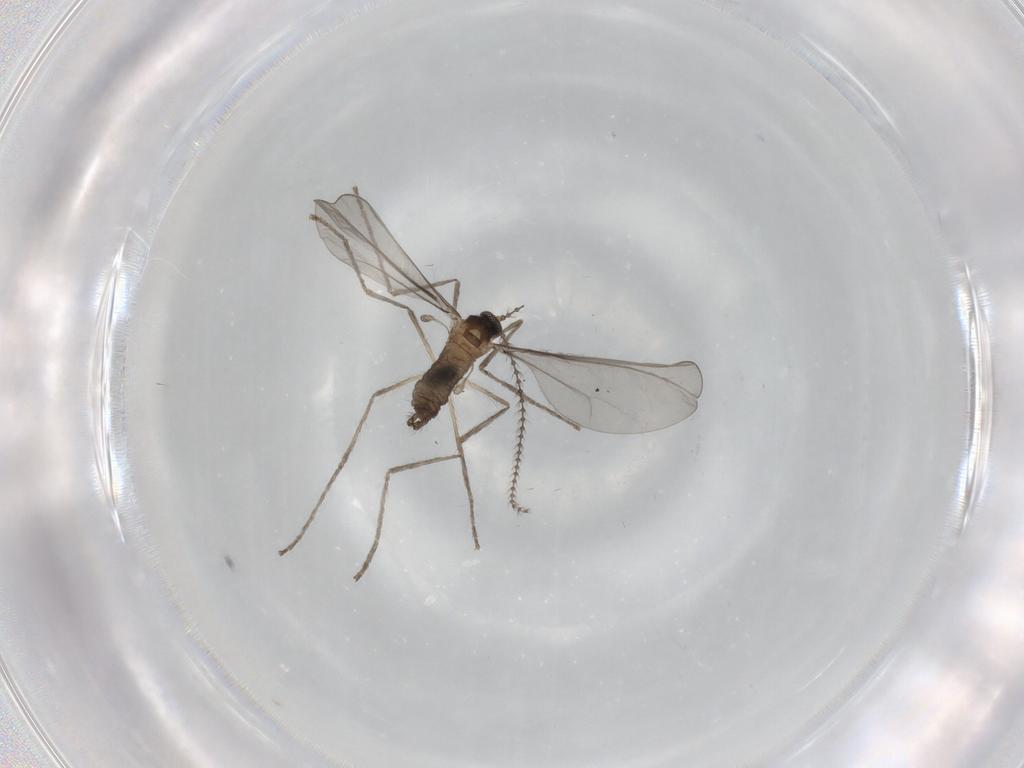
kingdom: Animalia
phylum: Arthropoda
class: Insecta
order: Diptera
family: Cecidomyiidae
